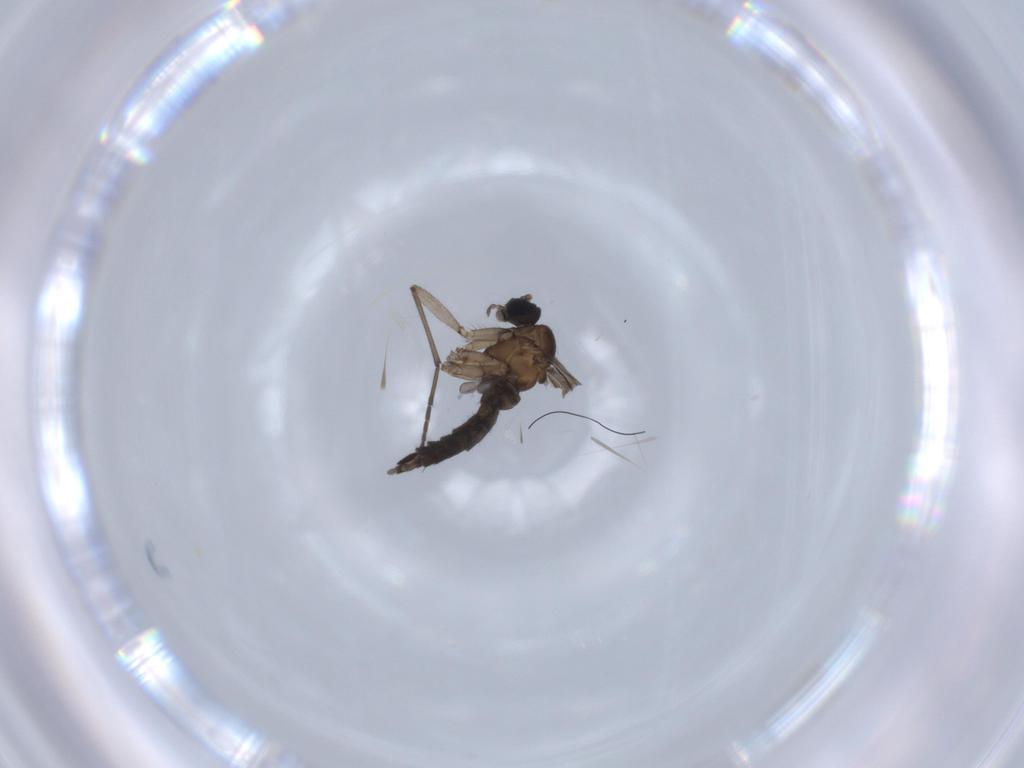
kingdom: Animalia
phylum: Arthropoda
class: Insecta
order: Diptera
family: Sciaridae
